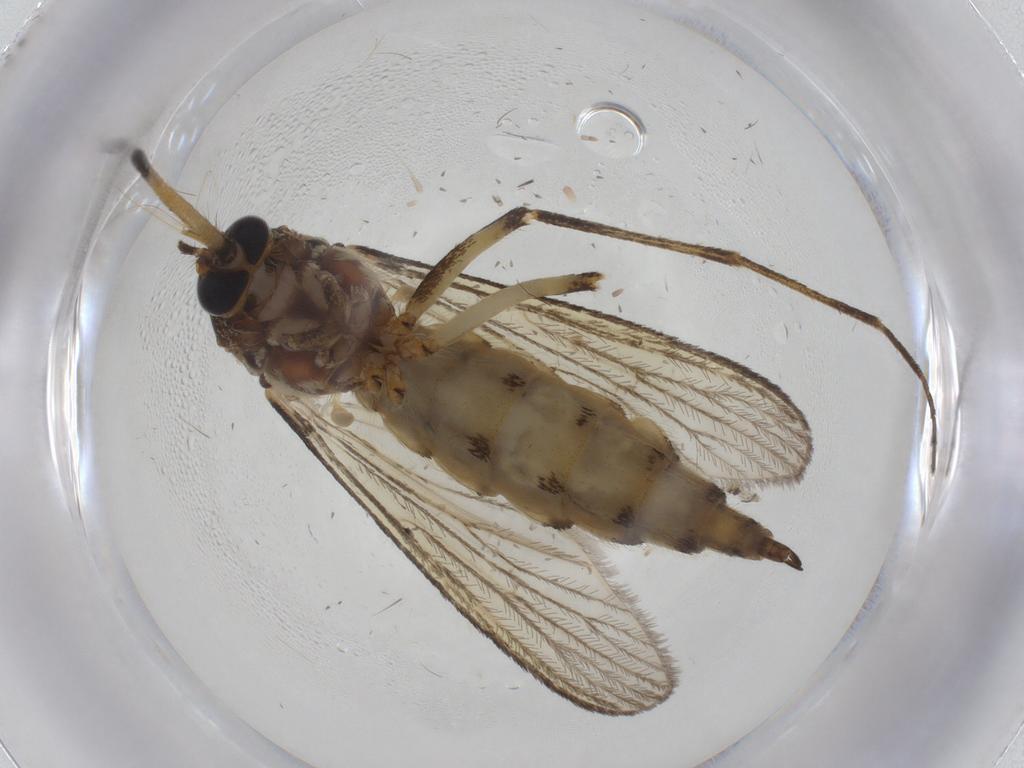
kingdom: Animalia
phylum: Arthropoda
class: Insecta
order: Diptera
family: Culicidae
